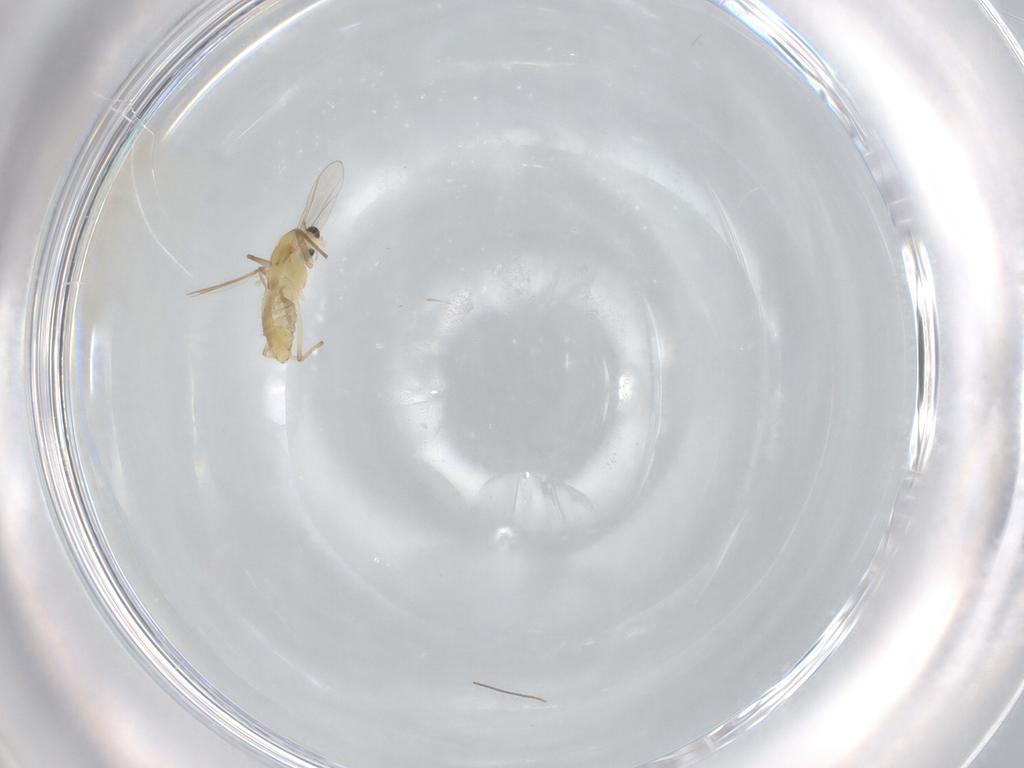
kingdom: Animalia
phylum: Arthropoda
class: Insecta
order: Diptera
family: Chironomidae
